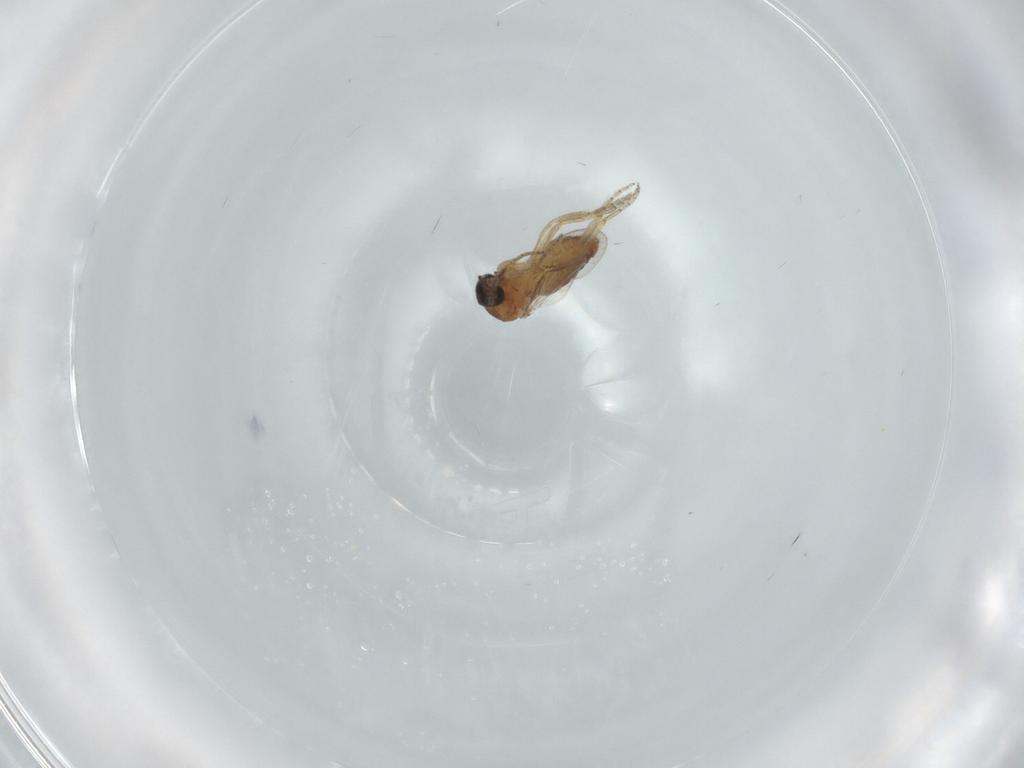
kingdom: Animalia
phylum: Arthropoda
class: Insecta
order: Diptera
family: Ceratopogonidae
